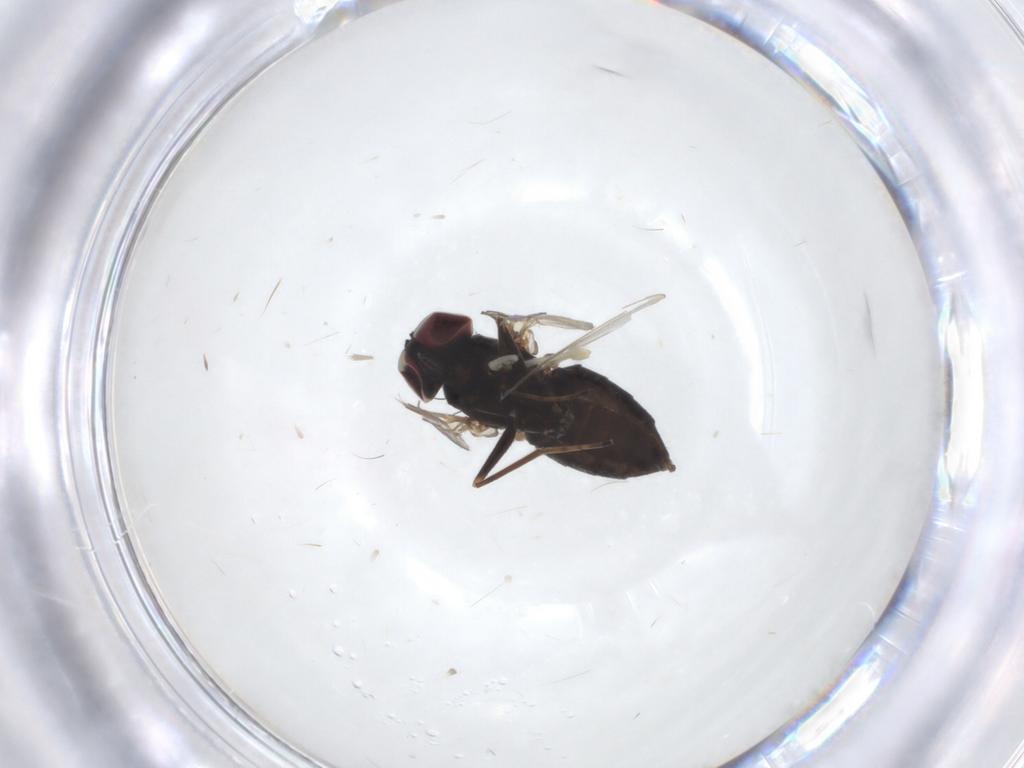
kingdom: Animalia
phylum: Arthropoda
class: Insecta
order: Diptera
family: Dolichopodidae
